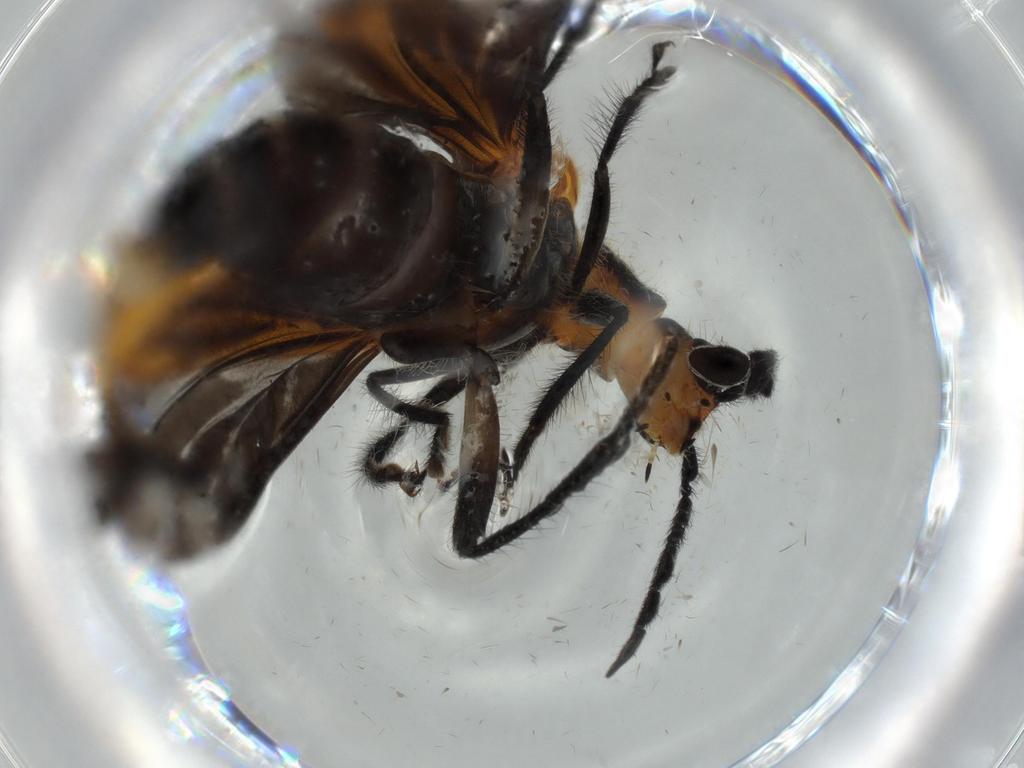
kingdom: Animalia
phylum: Arthropoda
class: Insecta
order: Coleoptera
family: Cleridae
